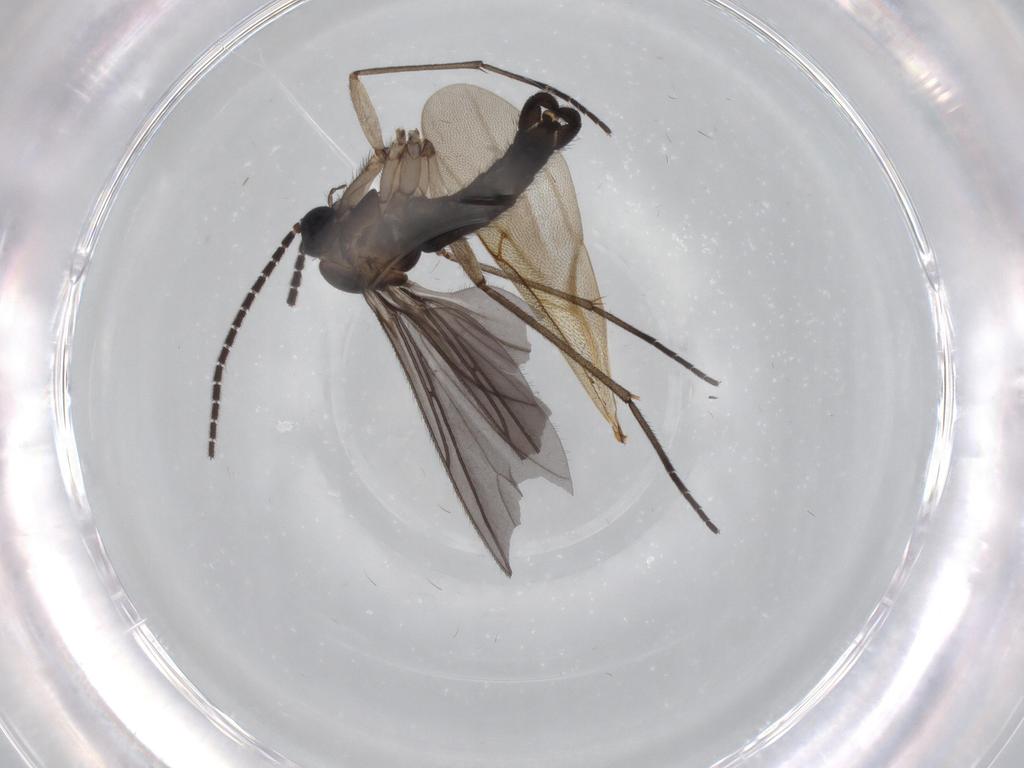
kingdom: Animalia
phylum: Arthropoda
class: Insecta
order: Diptera
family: Sciaridae
